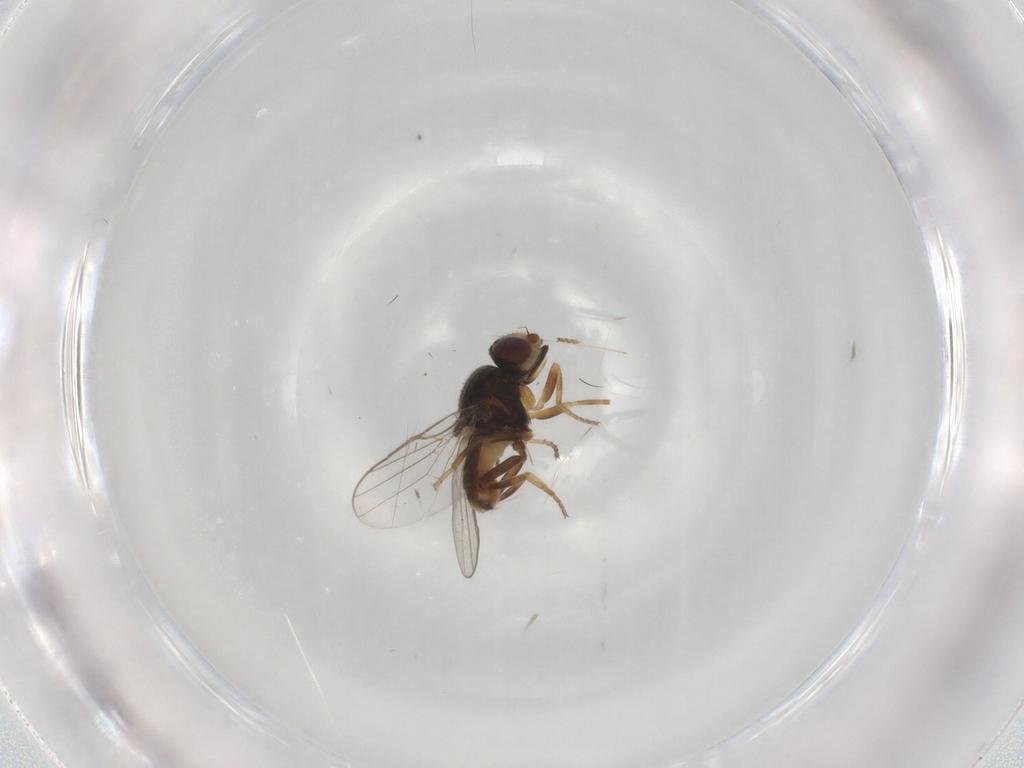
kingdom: Animalia
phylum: Arthropoda
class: Insecta
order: Diptera
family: Chloropidae
